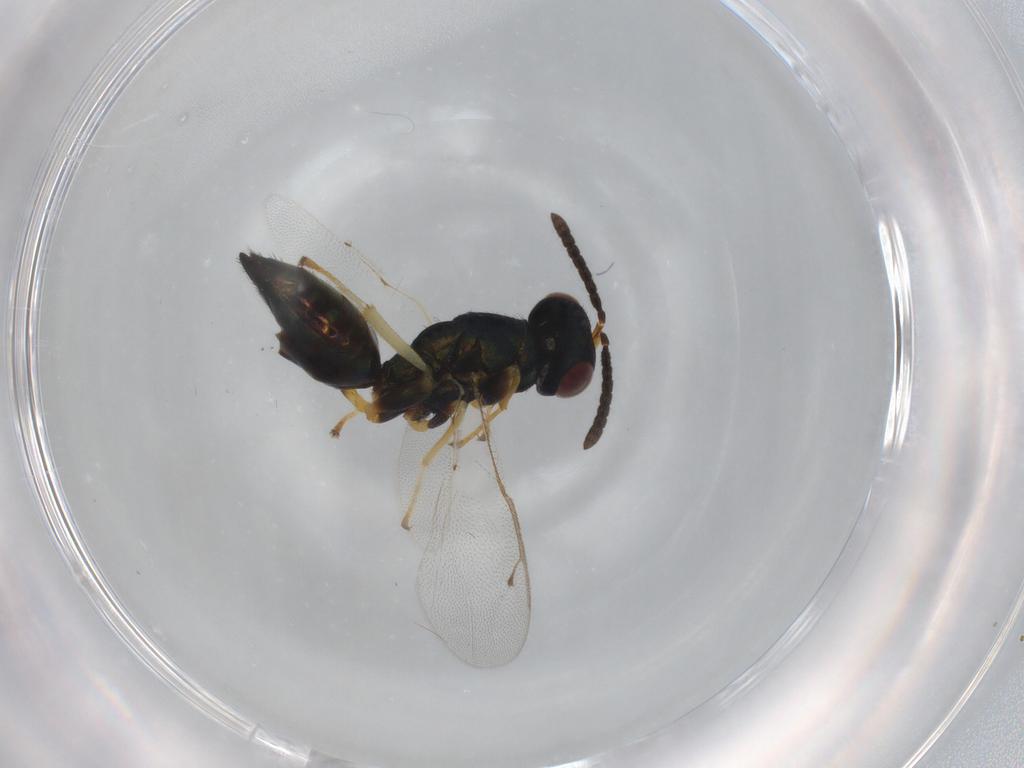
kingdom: Animalia
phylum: Arthropoda
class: Insecta
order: Hymenoptera
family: Pteromalidae
